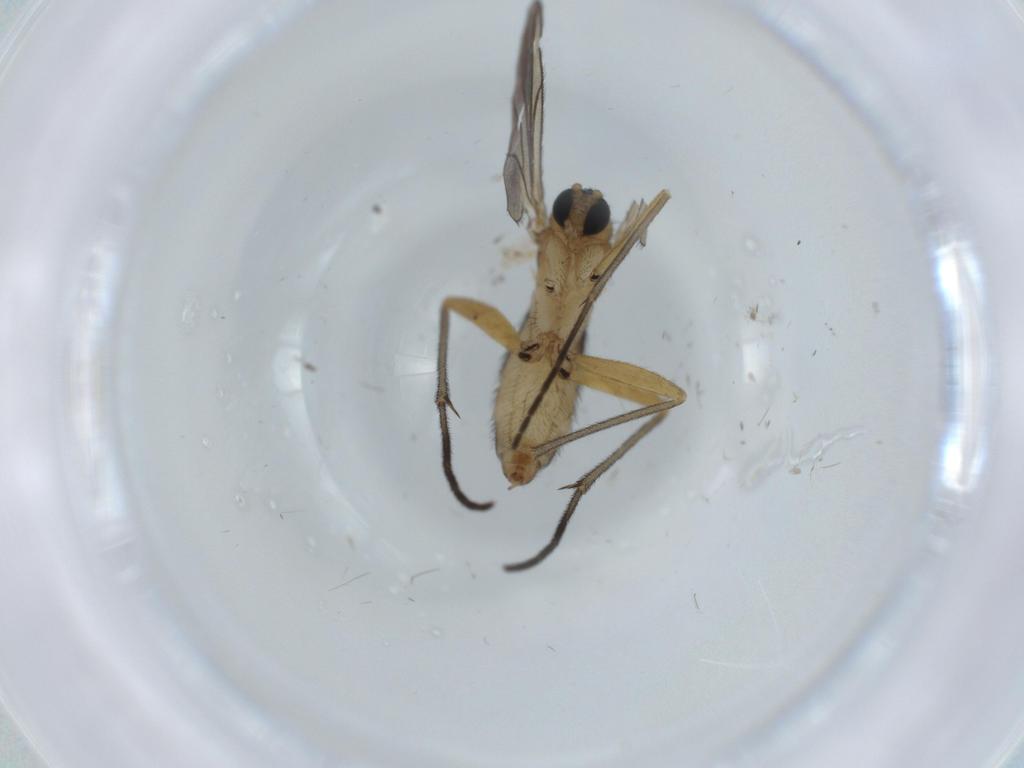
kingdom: Animalia
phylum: Arthropoda
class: Insecta
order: Diptera
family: Sciaridae
